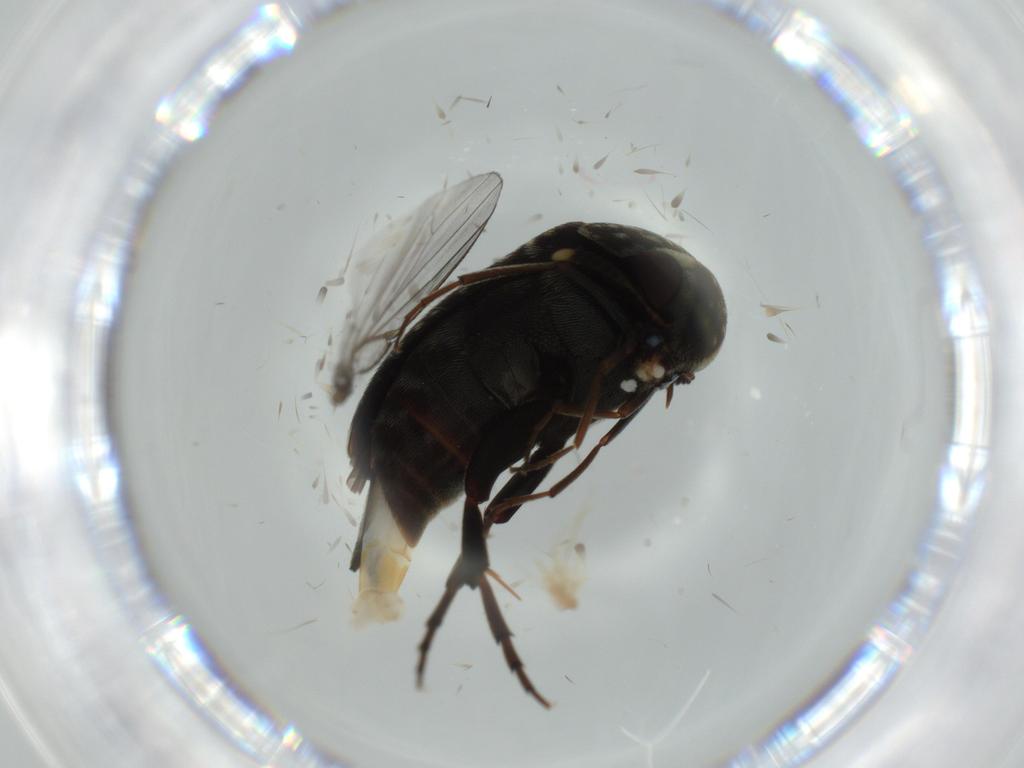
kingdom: Animalia
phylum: Arthropoda
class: Insecta
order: Coleoptera
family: Mordellidae
